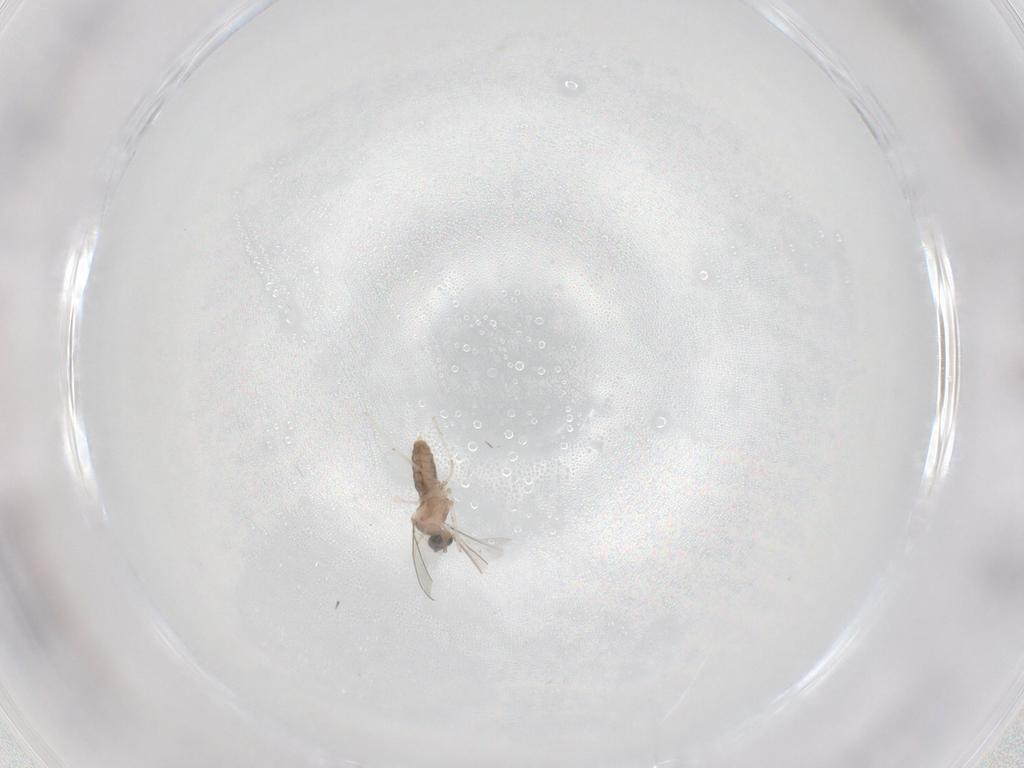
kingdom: Animalia
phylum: Arthropoda
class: Insecta
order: Diptera
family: Cecidomyiidae
